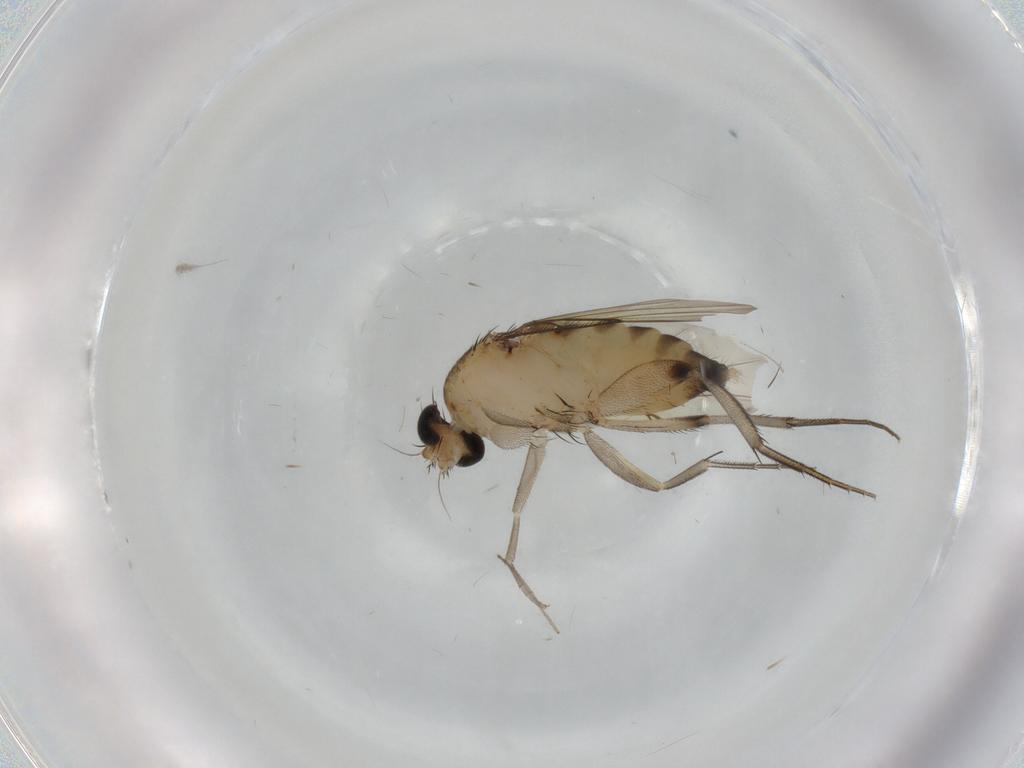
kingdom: Animalia
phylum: Arthropoda
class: Insecta
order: Diptera
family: Phoridae
